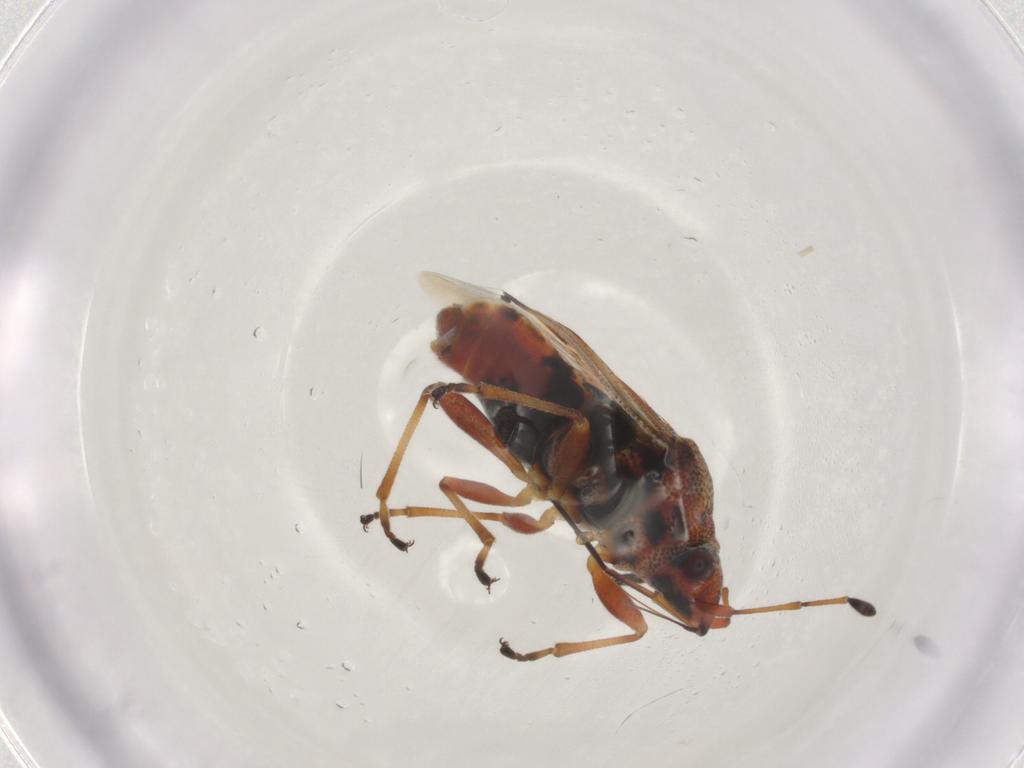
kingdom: Animalia
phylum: Arthropoda
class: Insecta
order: Hemiptera
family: Lygaeidae
